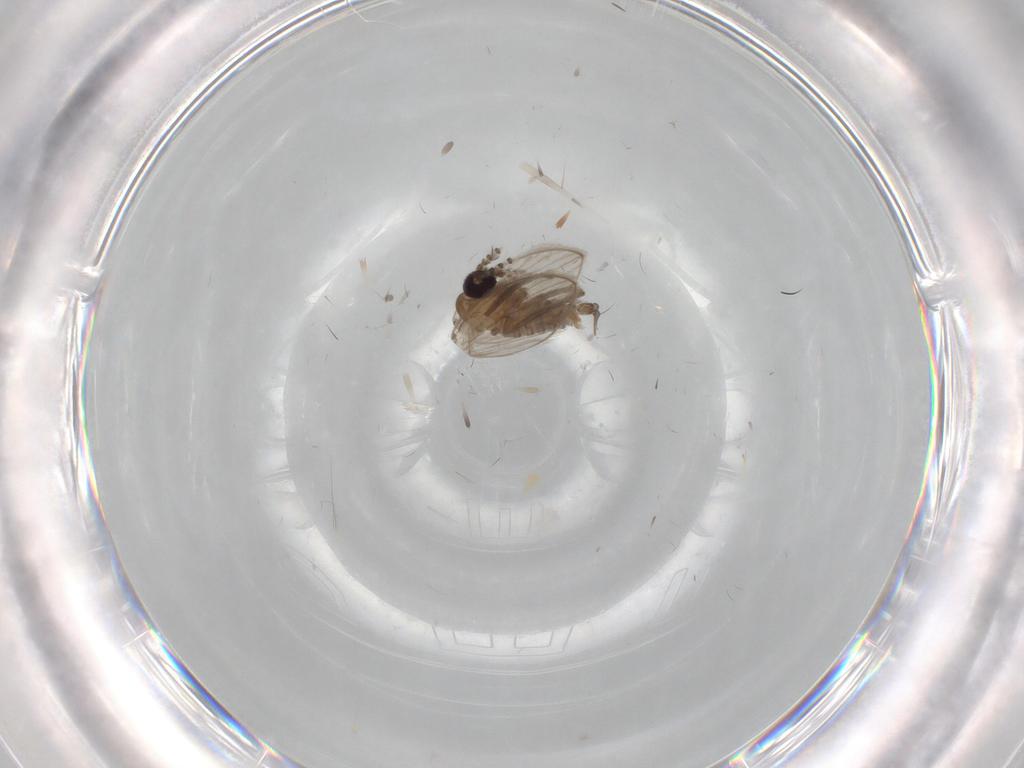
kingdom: Animalia
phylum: Arthropoda
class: Insecta
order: Diptera
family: Psychodidae
